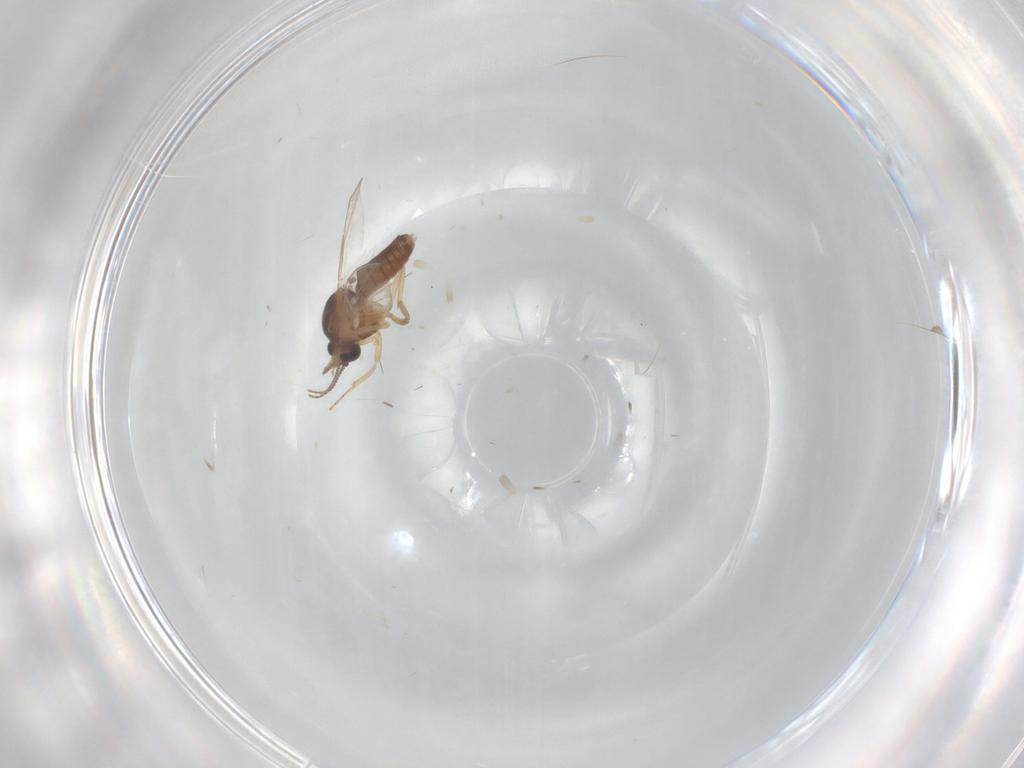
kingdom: Animalia
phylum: Arthropoda
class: Insecta
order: Diptera
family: Ceratopogonidae
